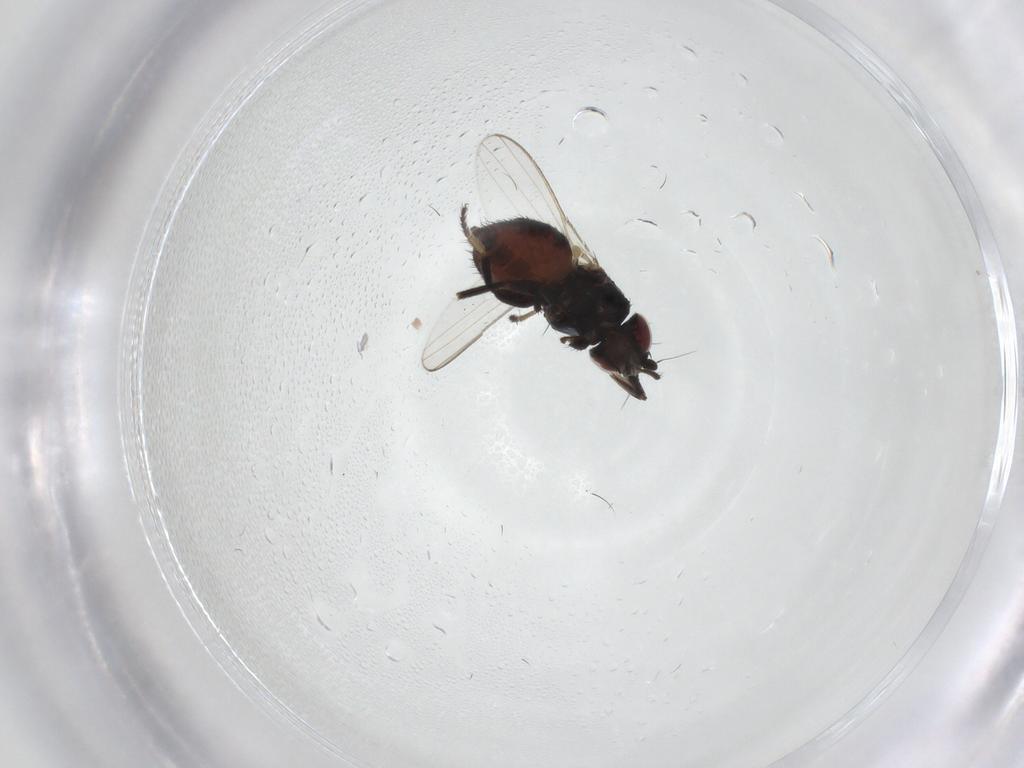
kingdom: Animalia
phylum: Arthropoda
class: Insecta
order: Diptera
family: Milichiidae
